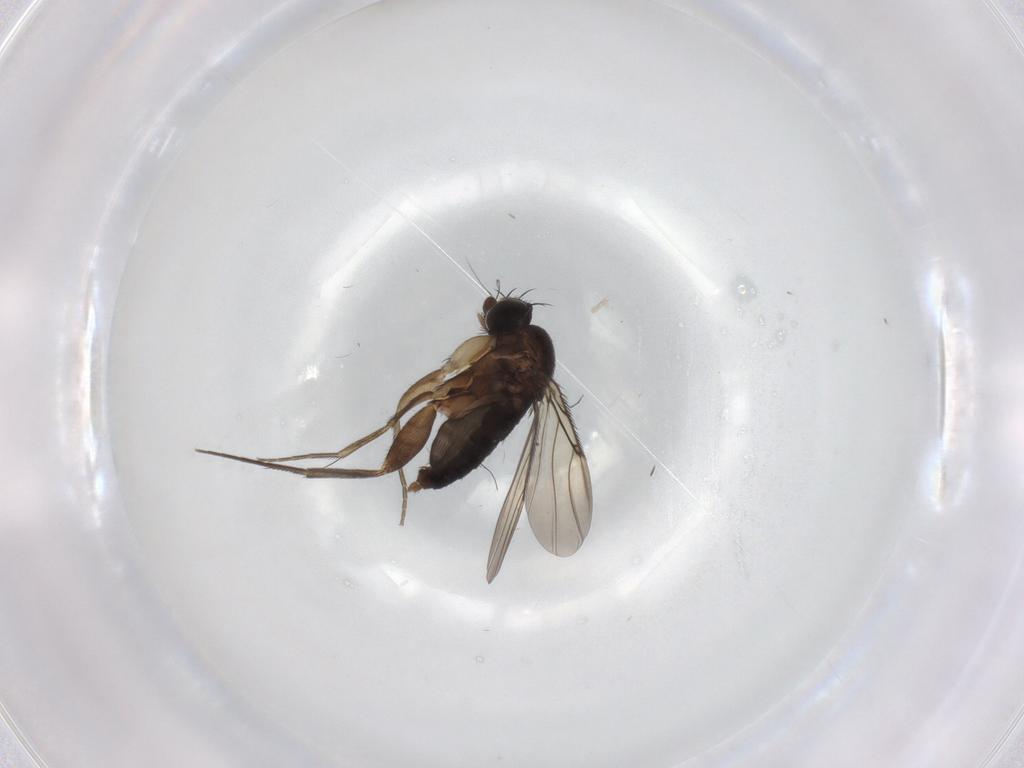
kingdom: Animalia
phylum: Arthropoda
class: Insecta
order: Diptera
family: Phoridae
